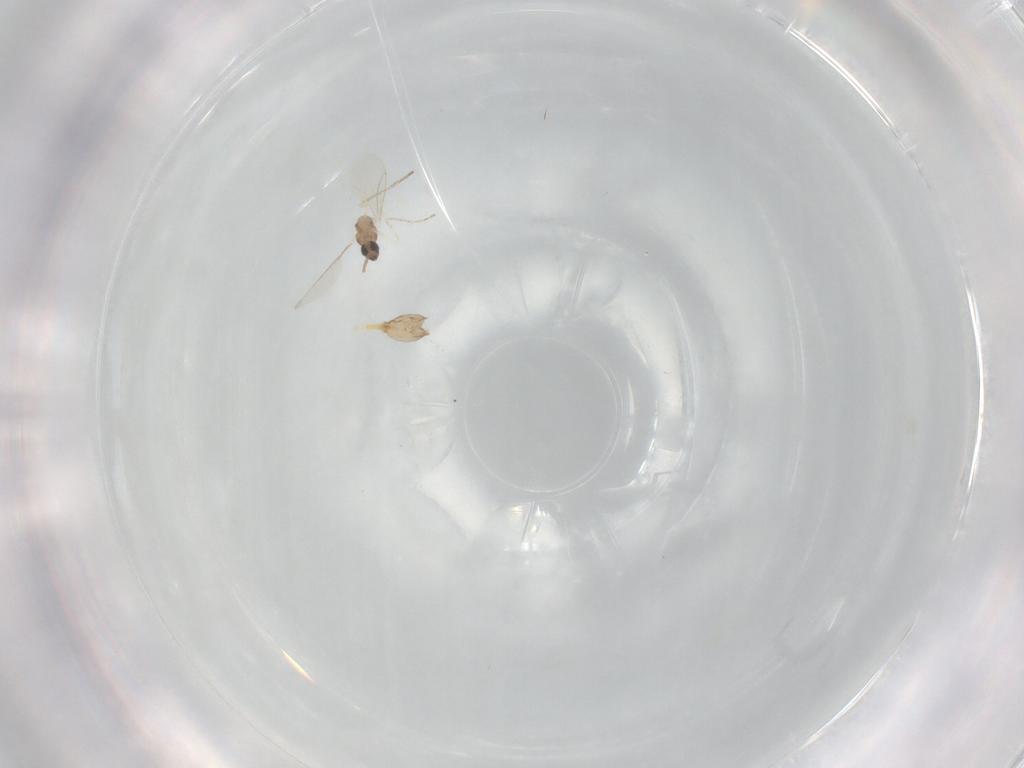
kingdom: Animalia
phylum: Arthropoda
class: Insecta
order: Diptera
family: Cecidomyiidae
